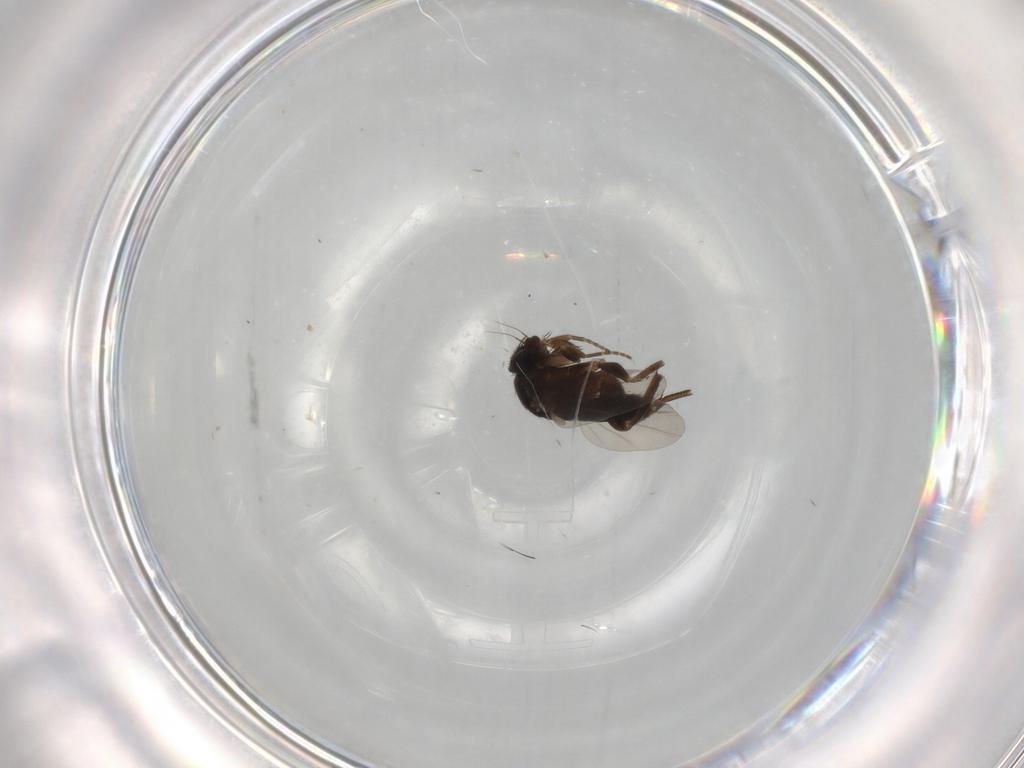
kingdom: Animalia
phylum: Arthropoda
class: Insecta
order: Diptera
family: Phoridae
